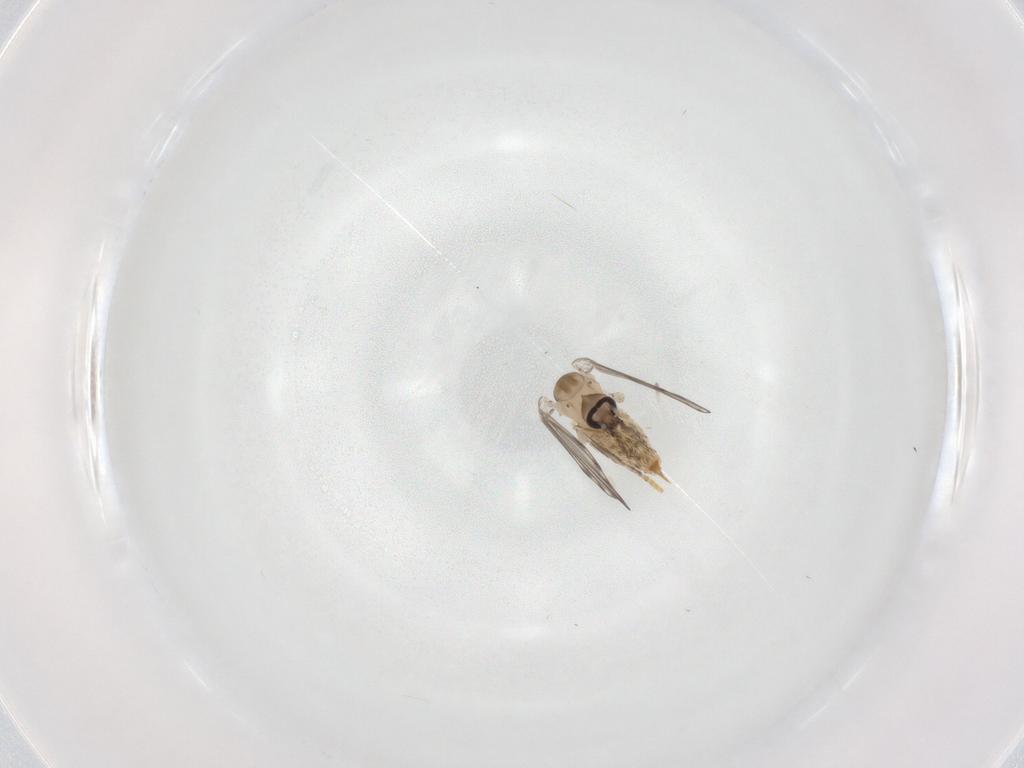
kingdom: Animalia
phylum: Arthropoda
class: Insecta
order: Diptera
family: Psychodidae
